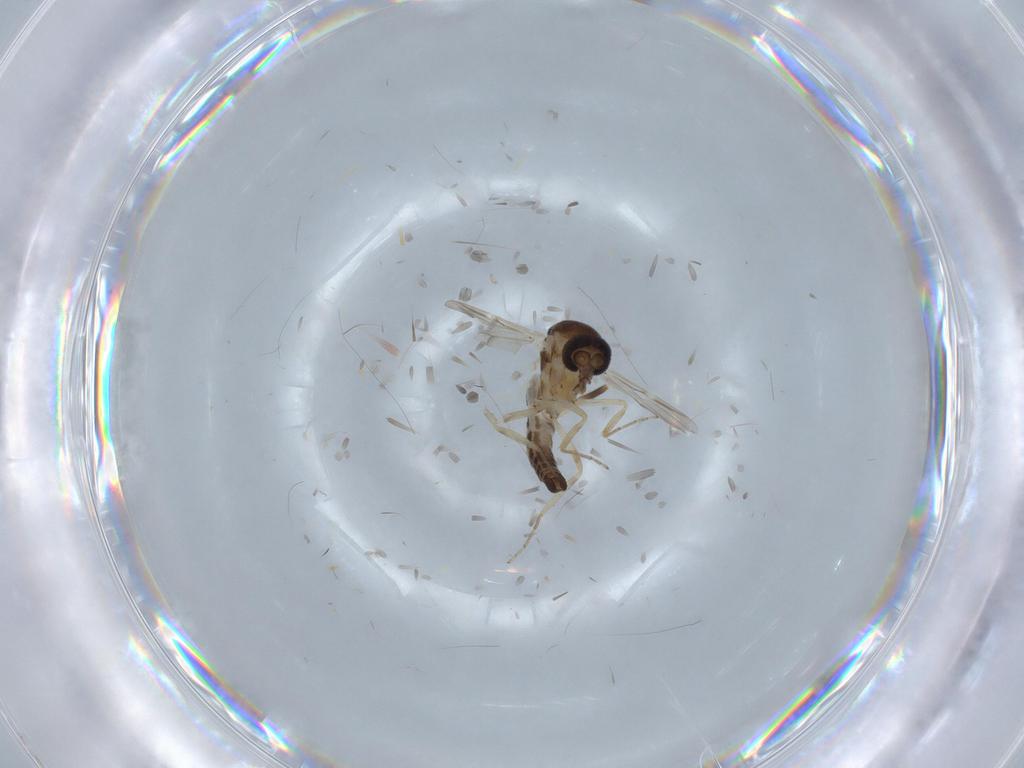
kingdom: Animalia
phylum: Arthropoda
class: Insecta
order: Diptera
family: Ceratopogonidae
